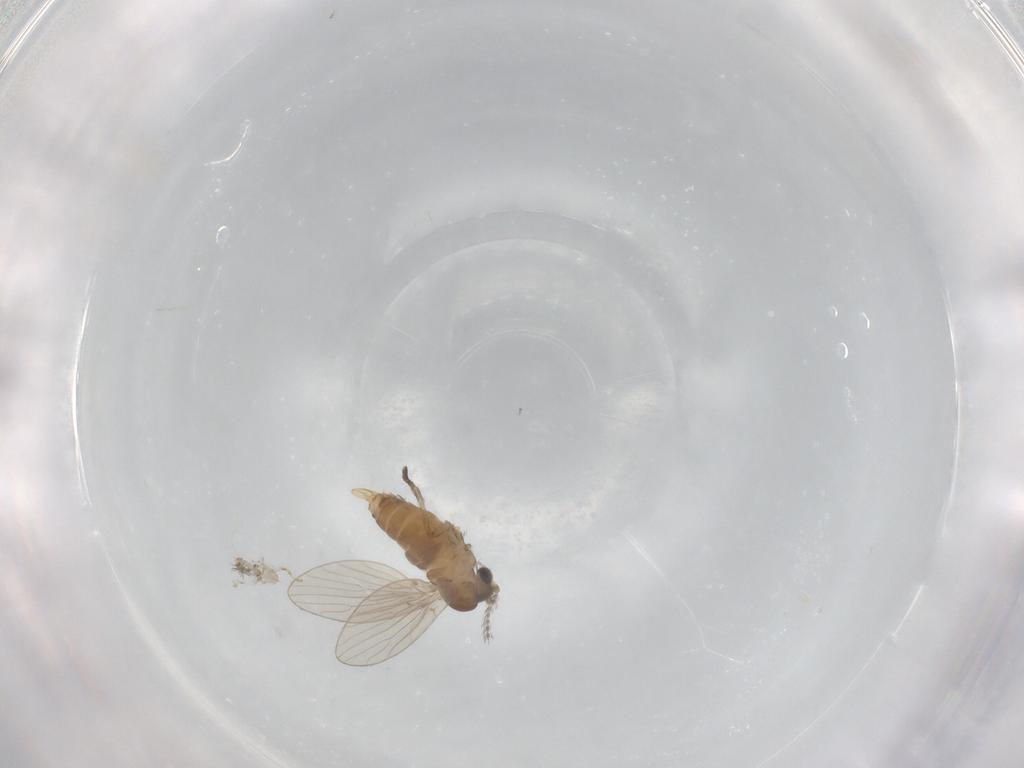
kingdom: Animalia
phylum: Arthropoda
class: Insecta
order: Diptera
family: Psychodidae
